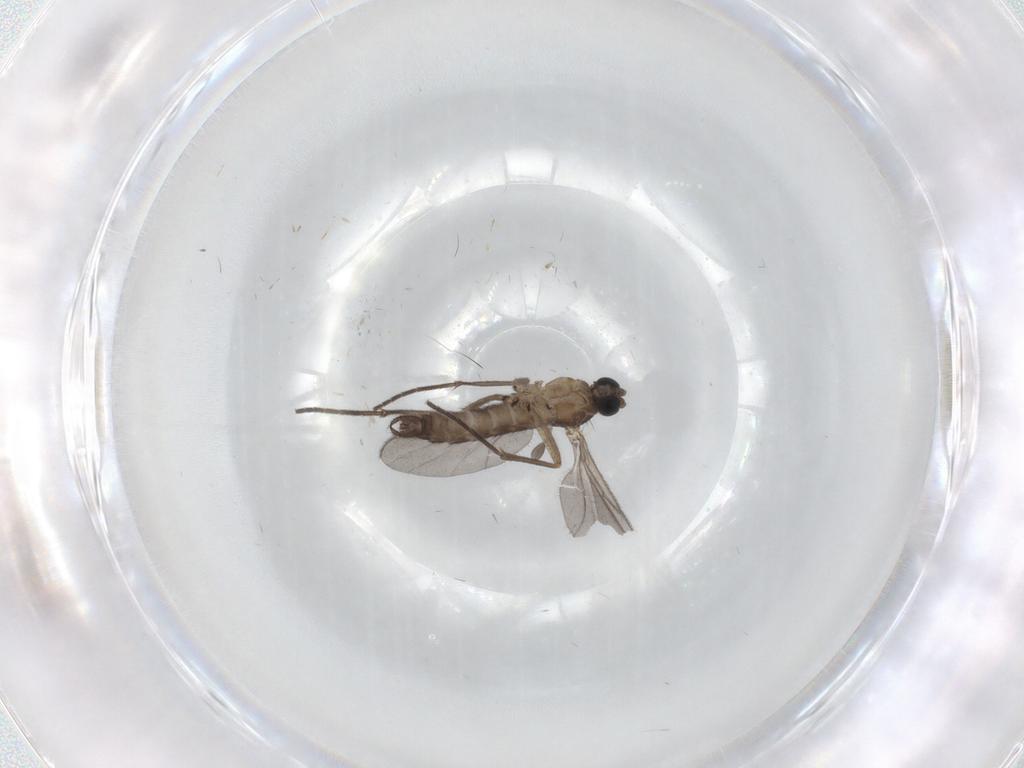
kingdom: Animalia
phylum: Arthropoda
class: Insecta
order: Diptera
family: Sciaridae
